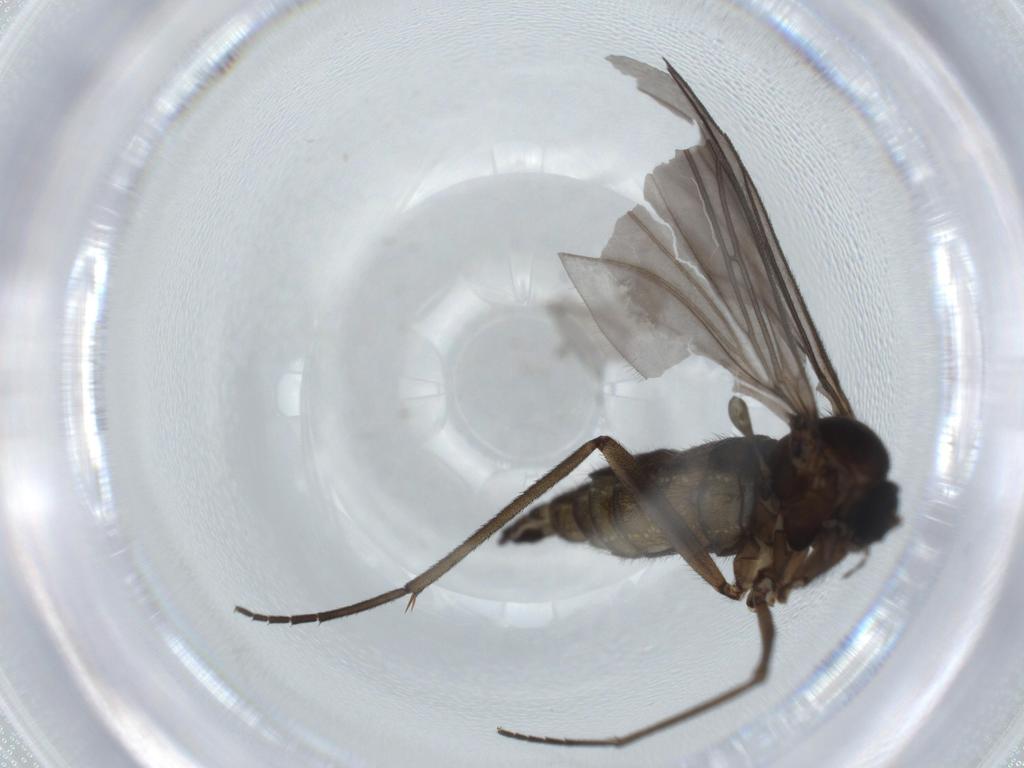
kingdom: Animalia
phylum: Arthropoda
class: Insecta
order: Diptera
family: Sciaridae
